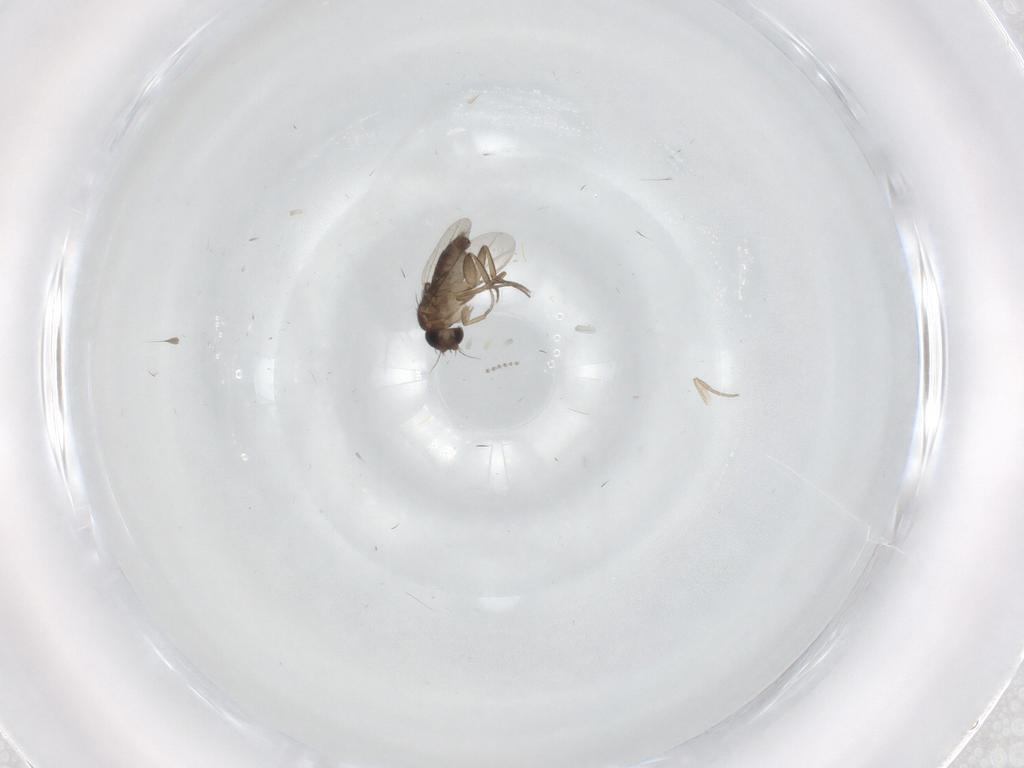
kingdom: Animalia
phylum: Arthropoda
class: Insecta
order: Diptera
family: Phoridae
